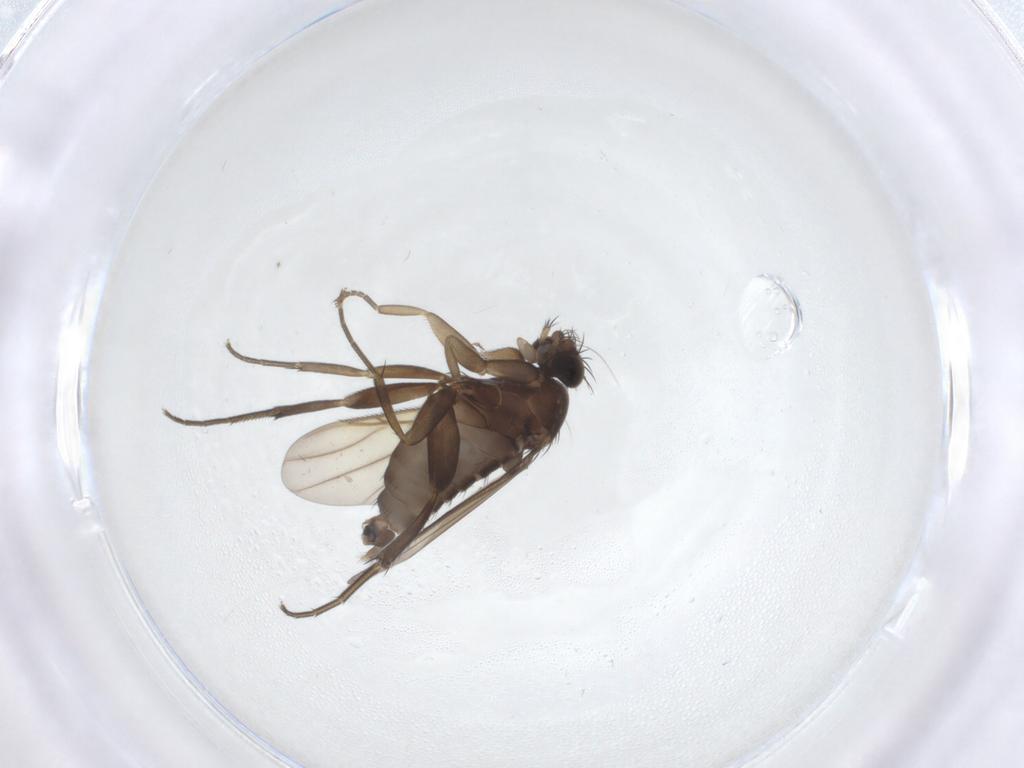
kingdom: Animalia
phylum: Arthropoda
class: Insecta
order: Diptera
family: Phoridae
